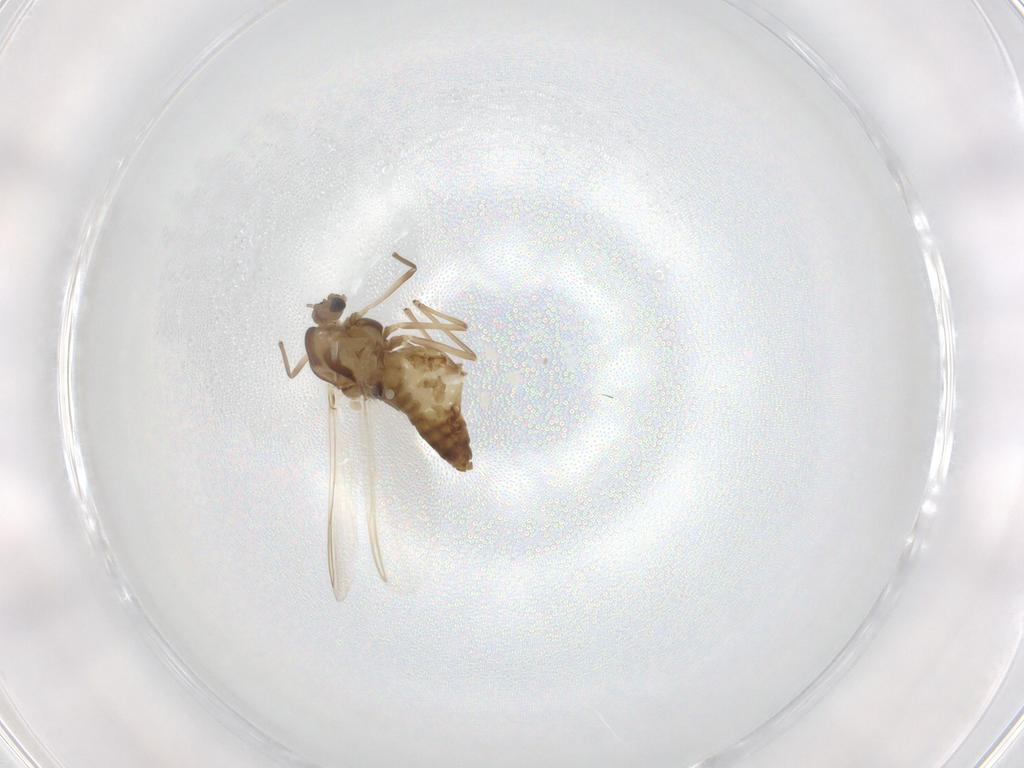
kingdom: Animalia
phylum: Arthropoda
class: Insecta
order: Diptera
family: Chironomidae
